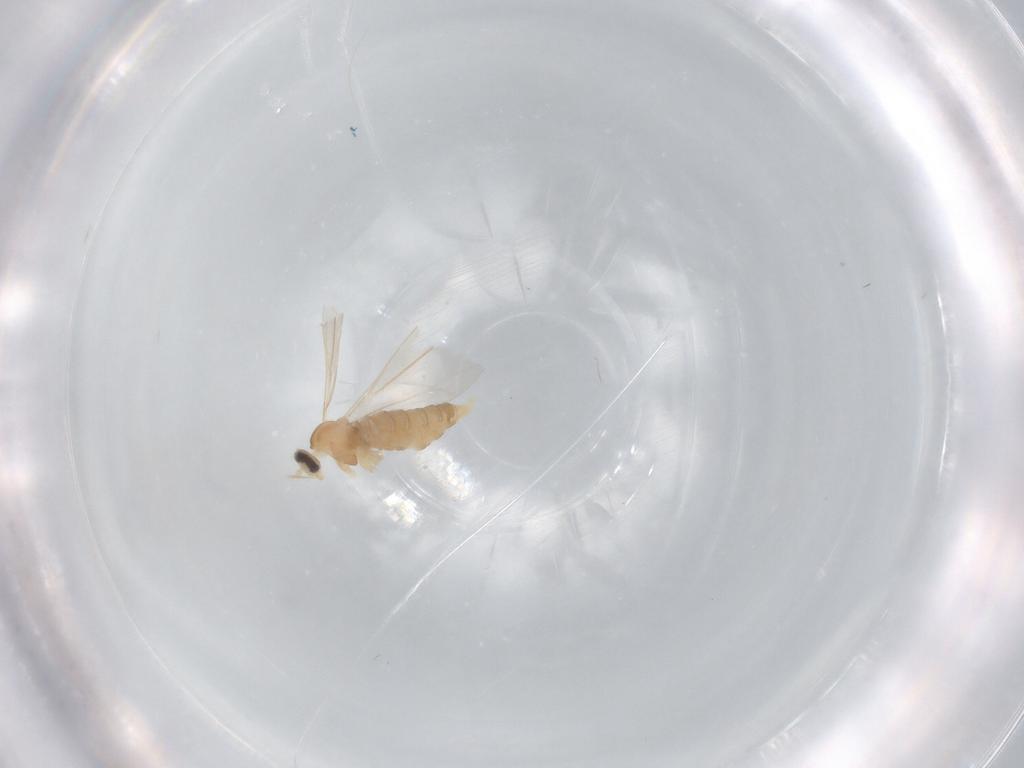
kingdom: Animalia
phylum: Arthropoda
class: Insecta
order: Diptera
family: Cecidomyiidae
